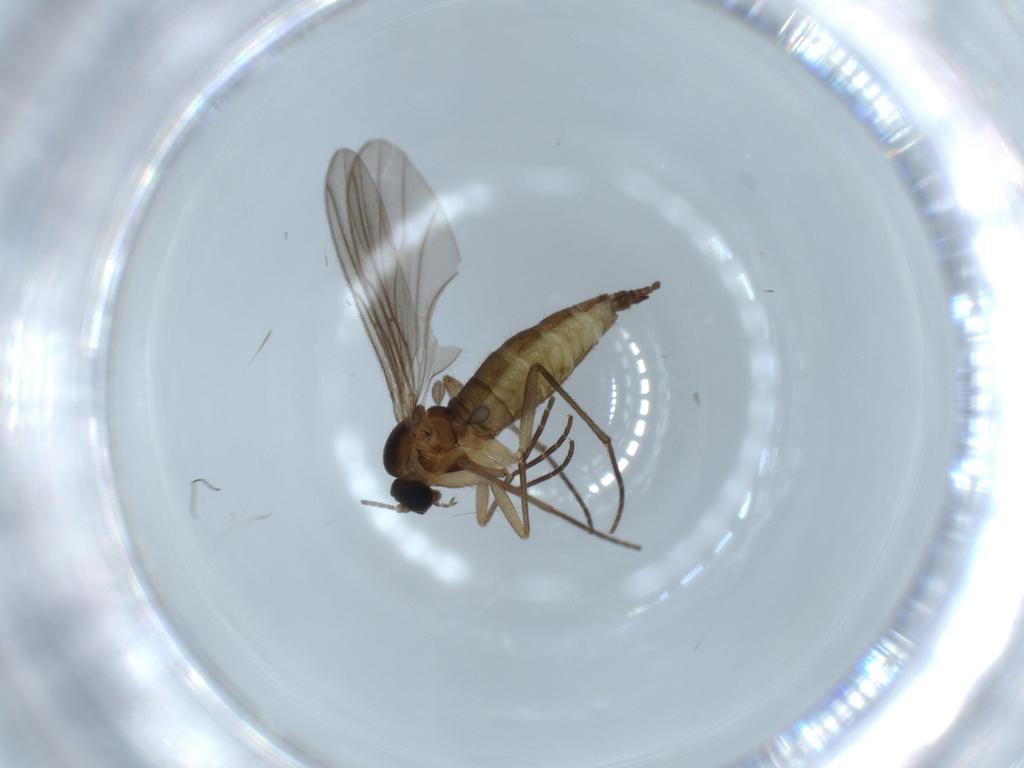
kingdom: Animalia
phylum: Arthropoda
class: Insecta
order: Diptera
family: Sciaridae
